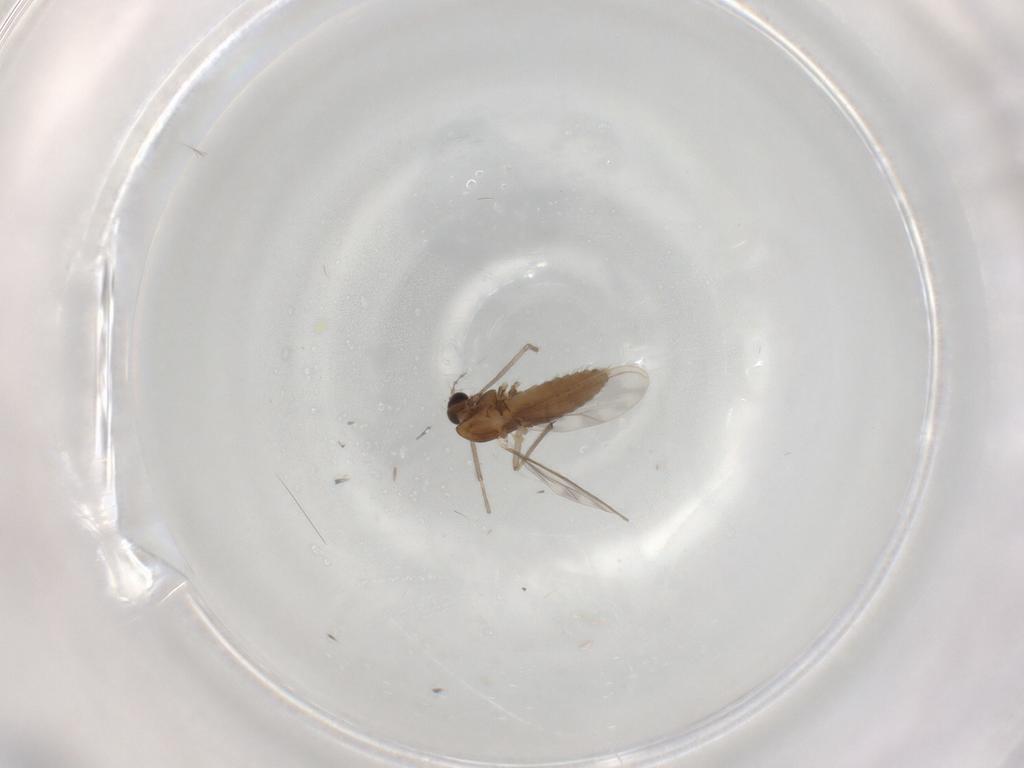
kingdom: Animalia
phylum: Arthropoda
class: Insecta
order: Diptera
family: Chironomidae
